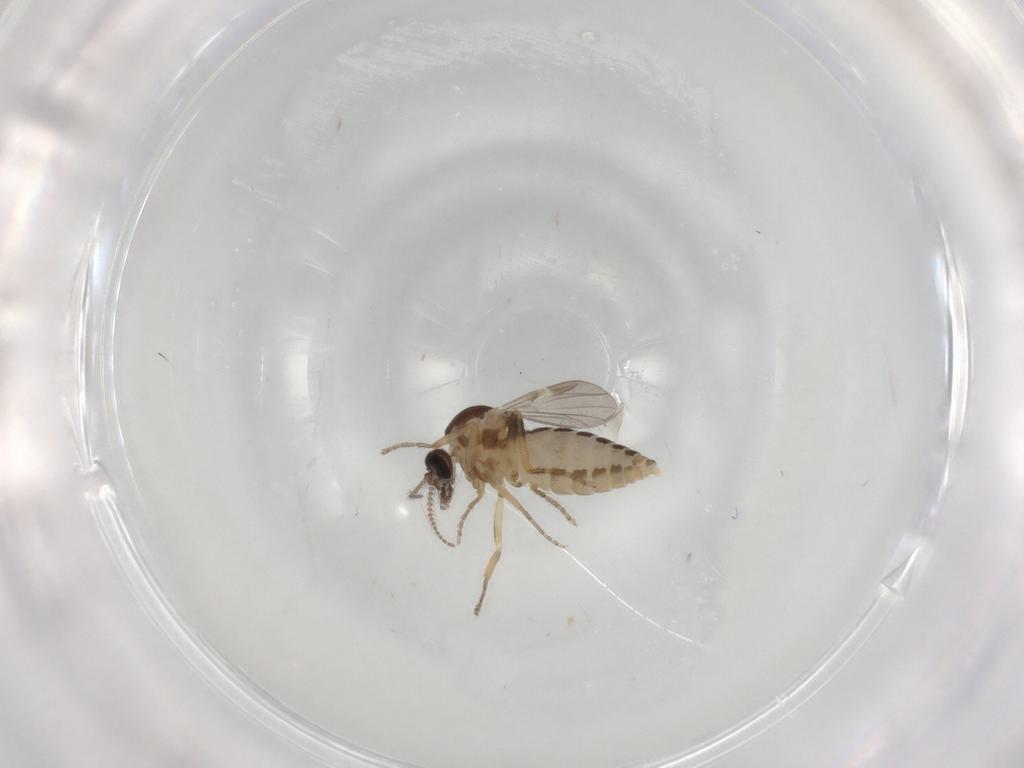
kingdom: Animalia
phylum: Arthropoda
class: Insecta
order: Diptera
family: Ceratopogonidae
